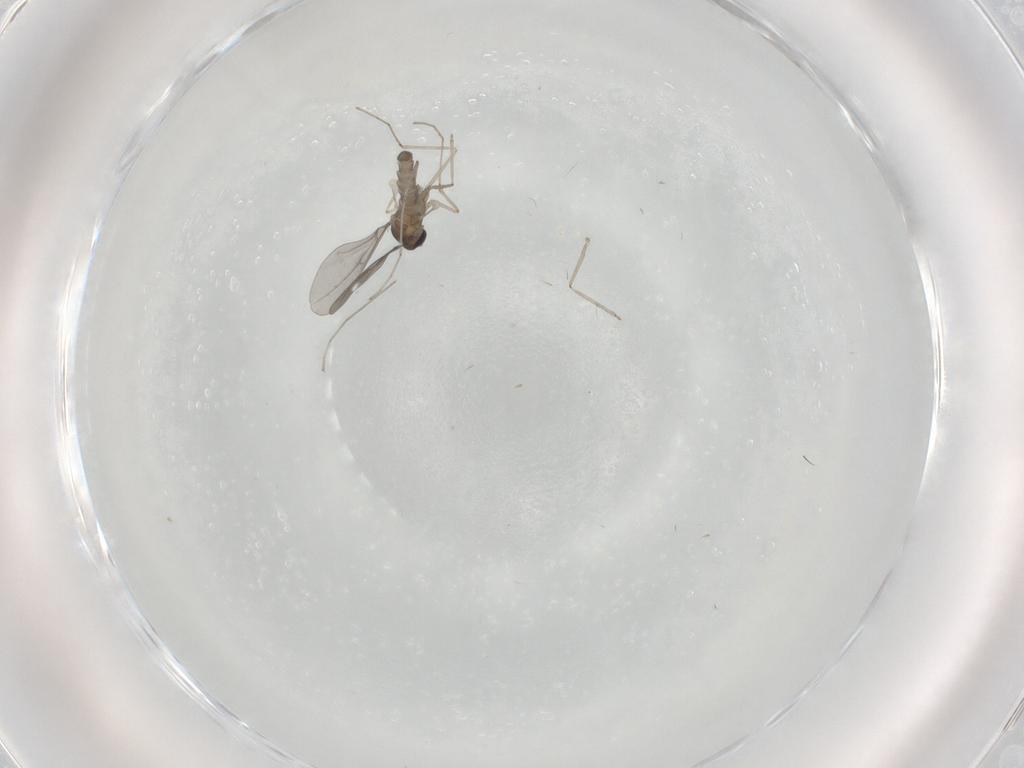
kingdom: Animalia
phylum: Arthropoda
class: Insecta
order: Diptera
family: Cecidomyiidae
